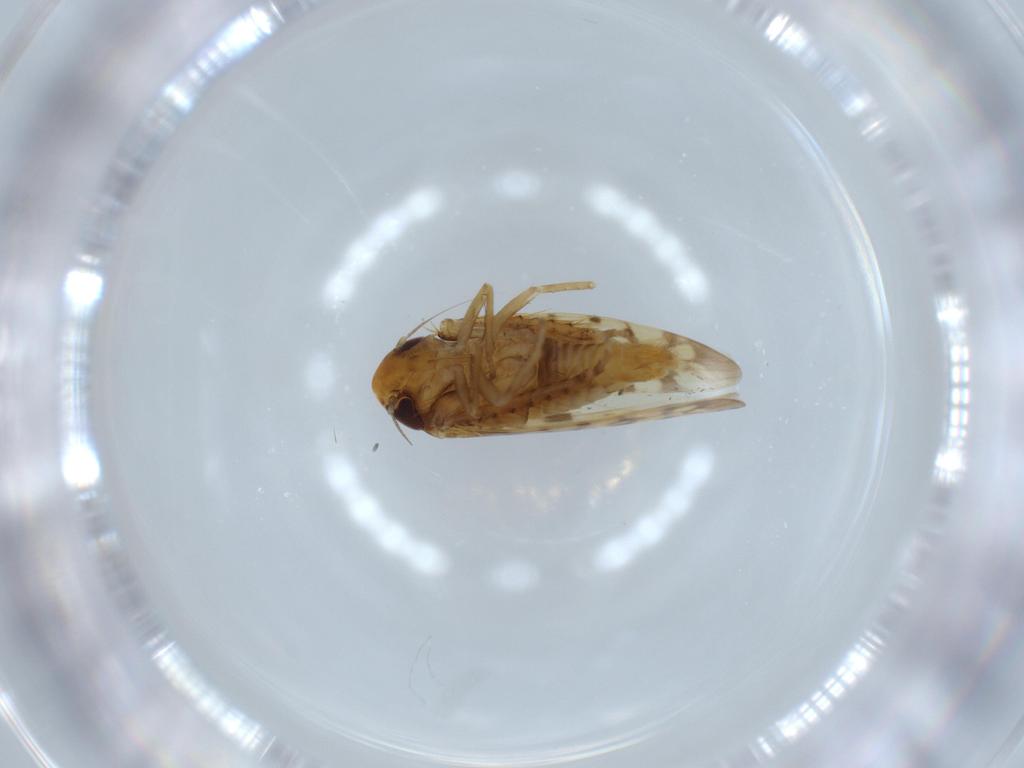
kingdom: Animalia
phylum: Arthropoda
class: Insecta
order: Hemiptera
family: Cicadellidae
